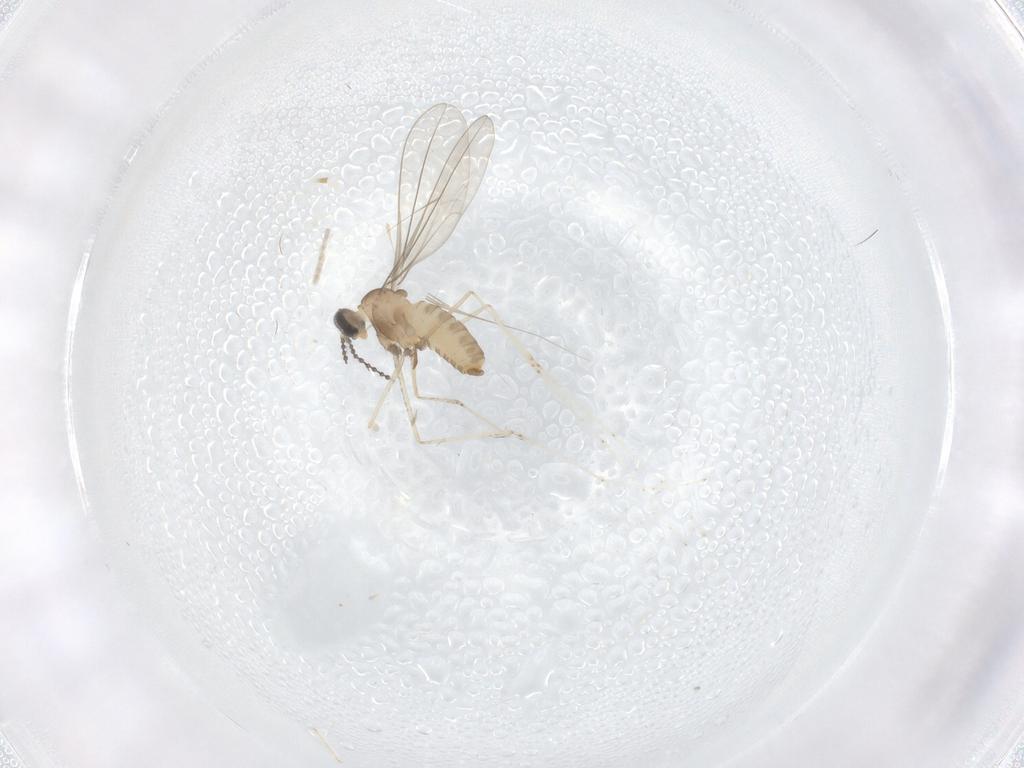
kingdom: Animalia
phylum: Arthropoda
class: Insecta
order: Diptera
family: Cecidomyiidae
